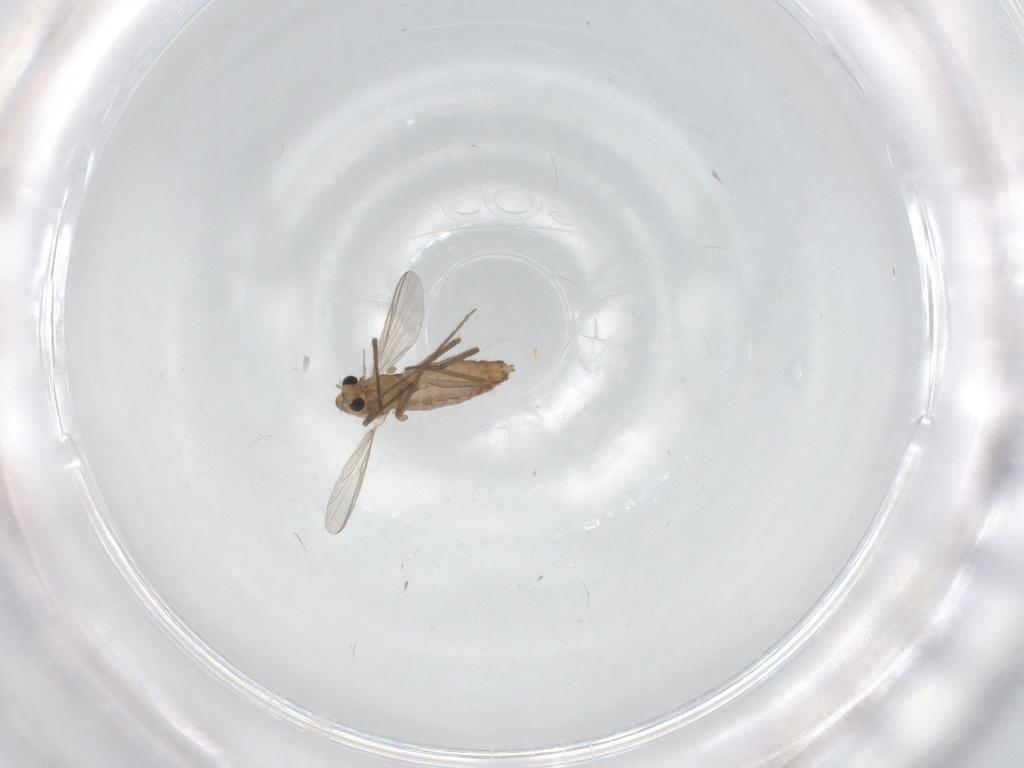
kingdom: Animalia
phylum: Arthropoda
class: Insecta
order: Diptera
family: Chironomidae
